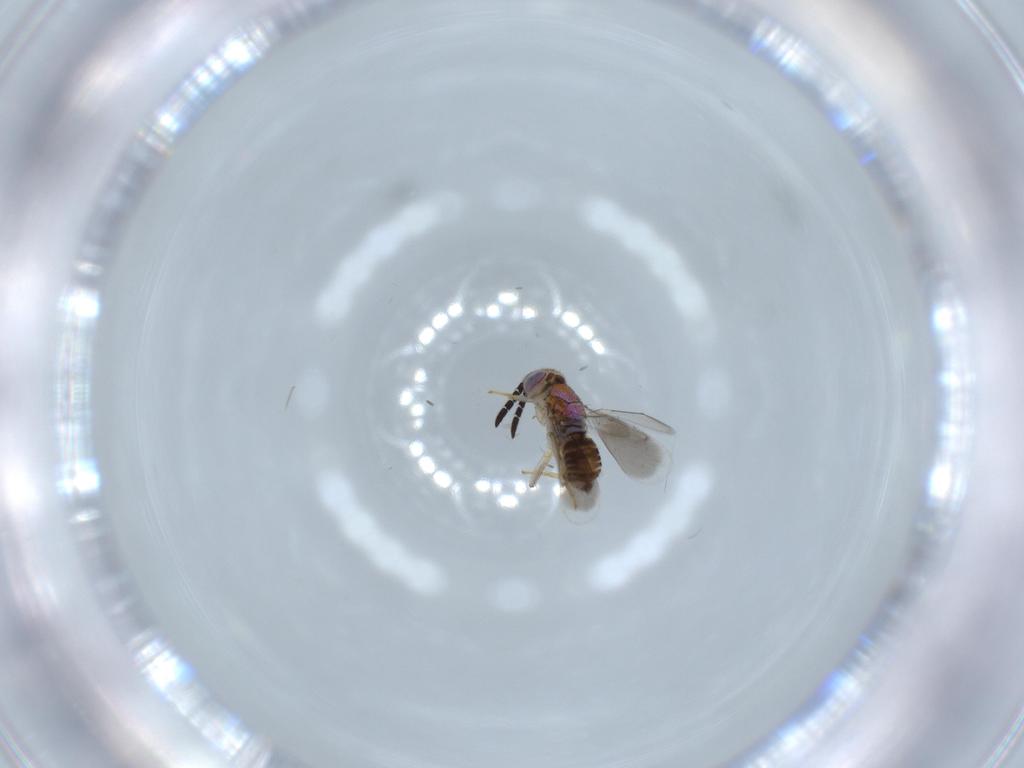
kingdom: Animalia
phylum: Arthropoda
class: Insecta
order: Hymenoptera
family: Aphelinidae
